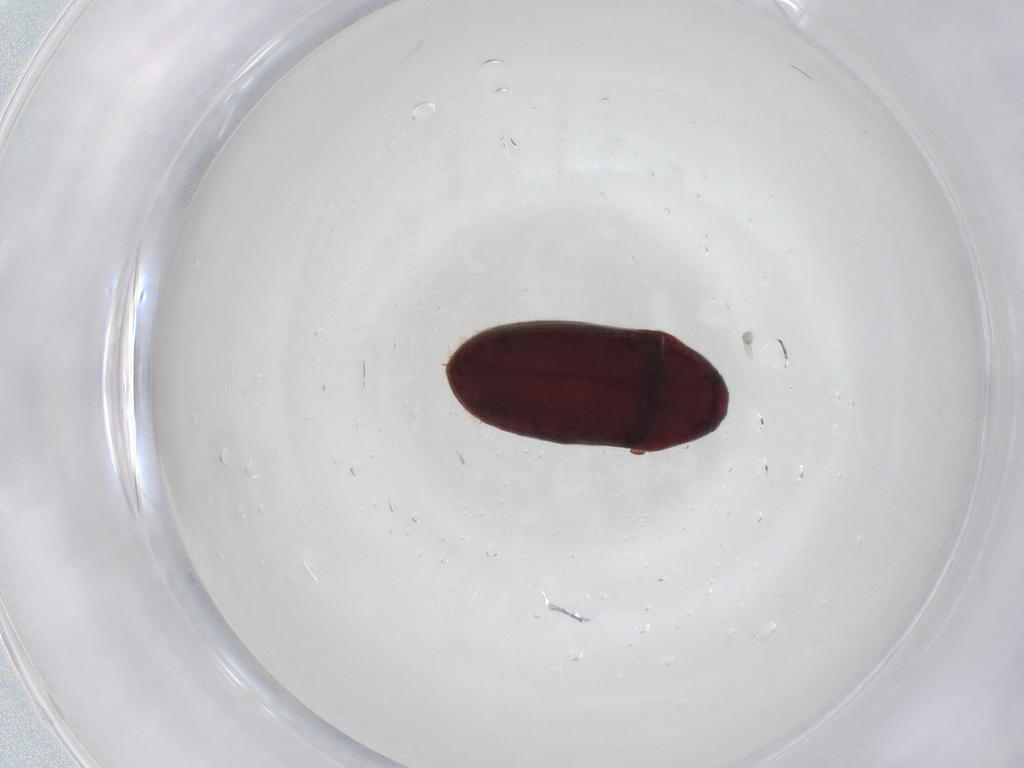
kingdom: Animalia
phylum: Arthropoda
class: Insecta
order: Coleoptera
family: Throscidae
